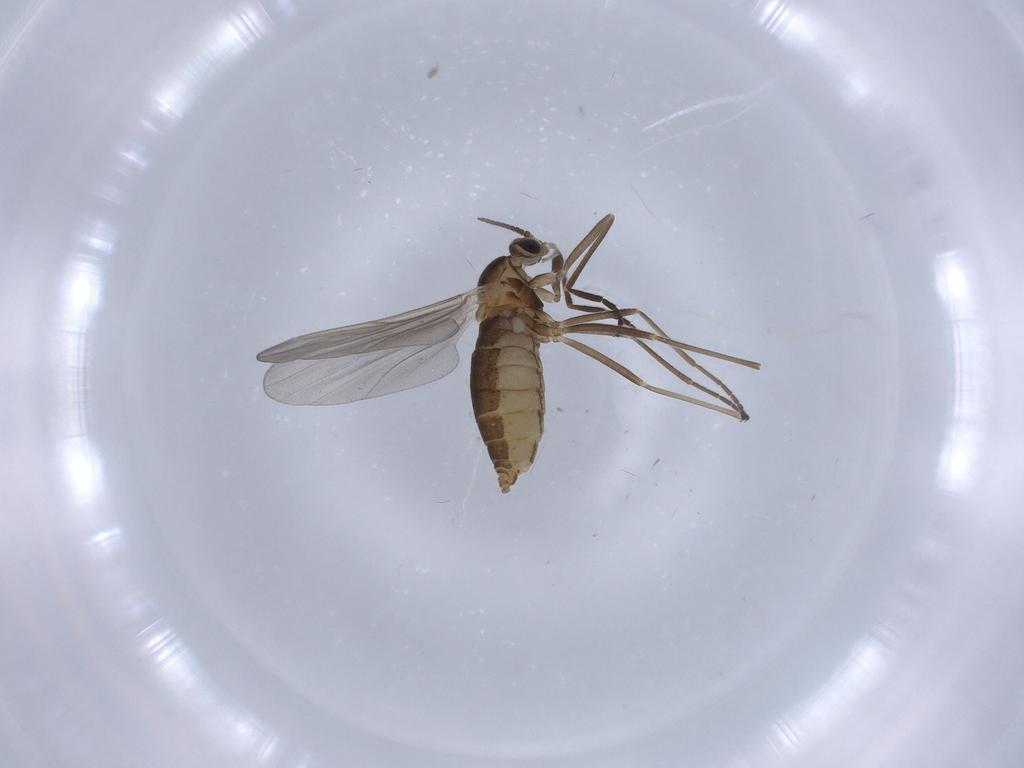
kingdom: Animalia
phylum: Arthropoda
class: Insecta
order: Diptera
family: Cecidomyiidae
